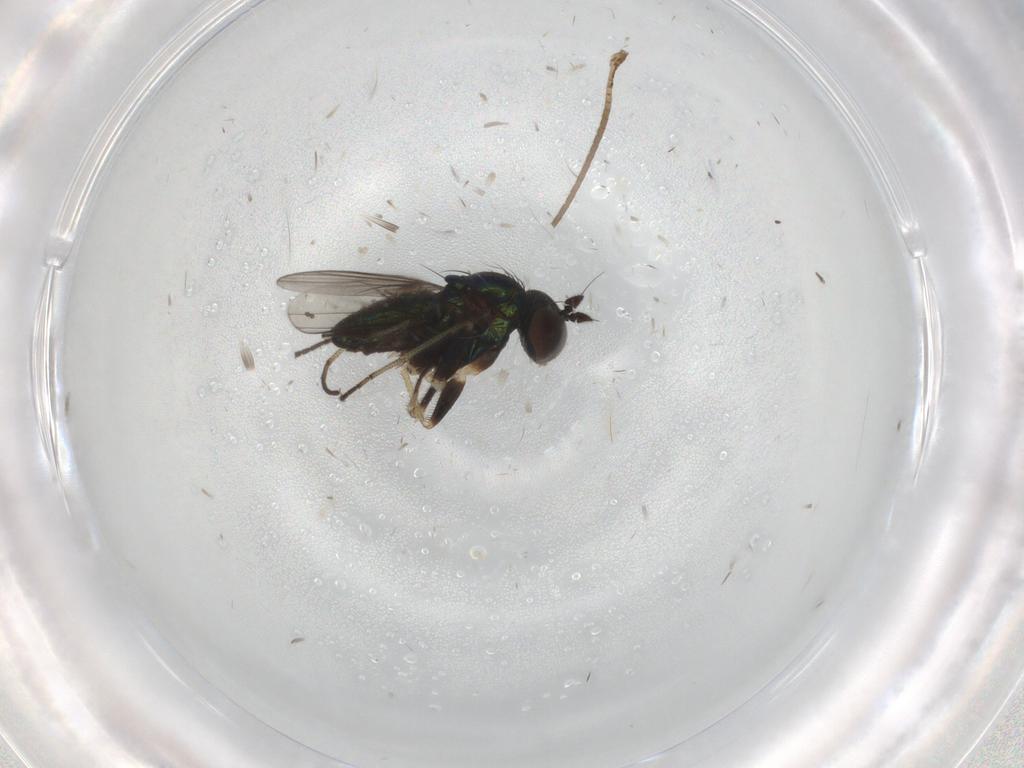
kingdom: Animalia
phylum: Arthropoda
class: Insecta
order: Diptera
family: Limoniidae
